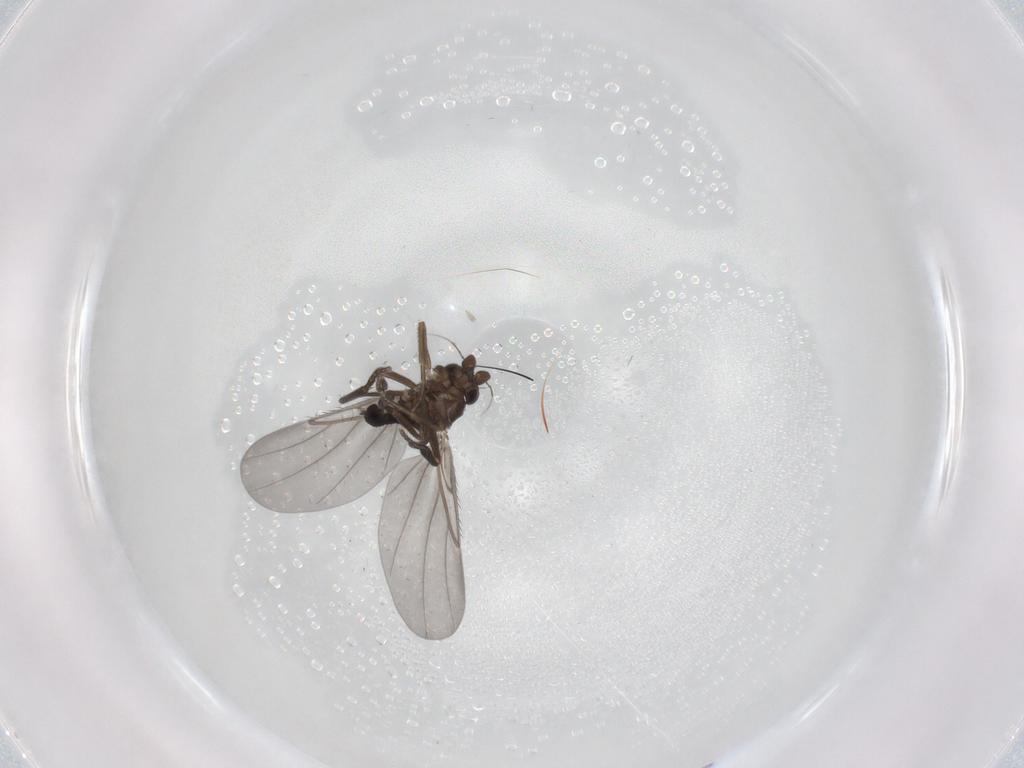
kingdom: Animalia
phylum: Arthropoda
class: Insecta
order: Diptera
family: Phoridae
